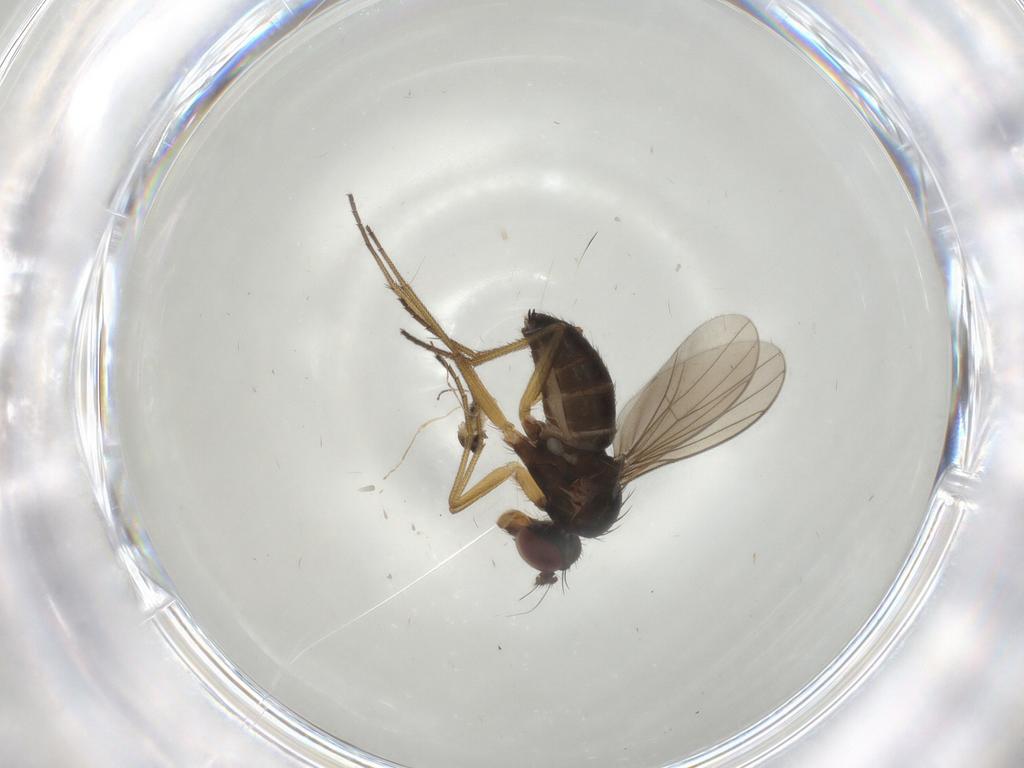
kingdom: Animalia
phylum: Arthropoda
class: Insecta
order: Diptera
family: Dolichopodidae
